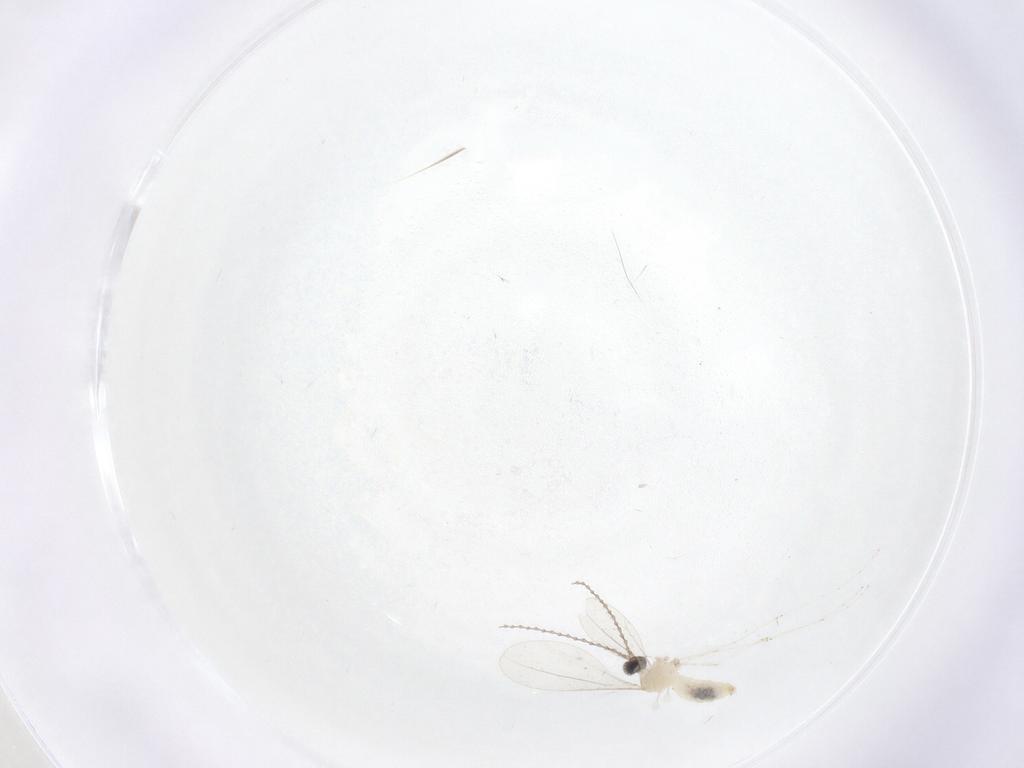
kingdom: Animalia
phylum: Arthropoda
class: Insecta
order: Diptera
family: Cecidomyiidae
